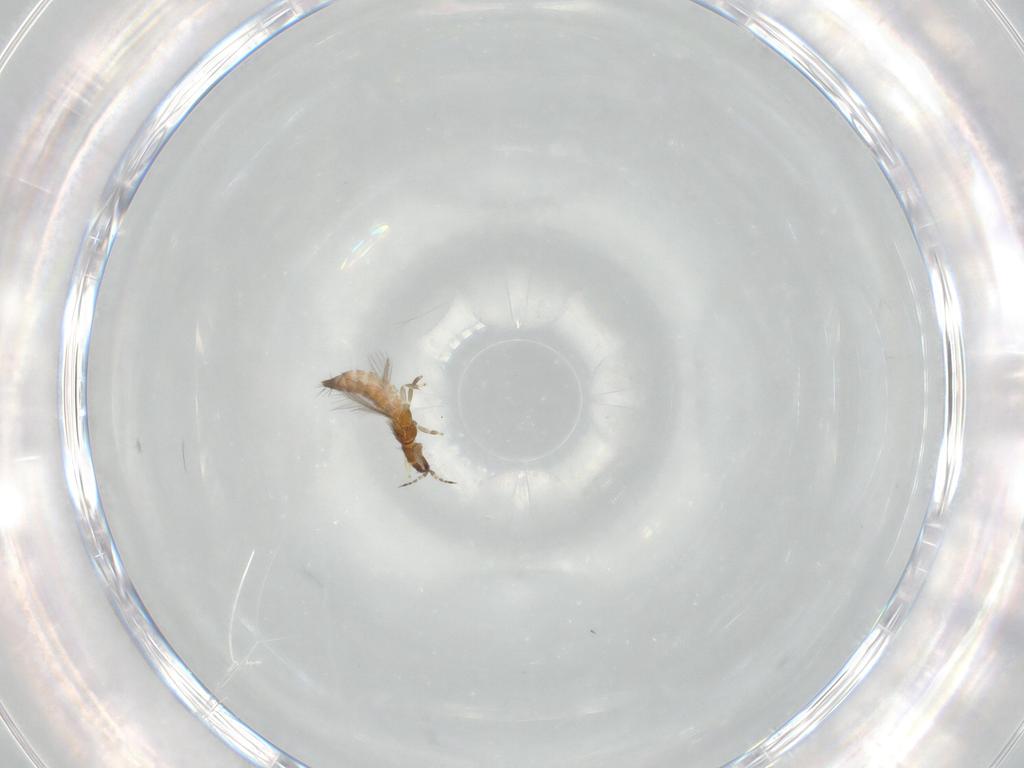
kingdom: Animalia
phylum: Arthropoda
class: Insecta
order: Thysanoptera
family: Thripidae
